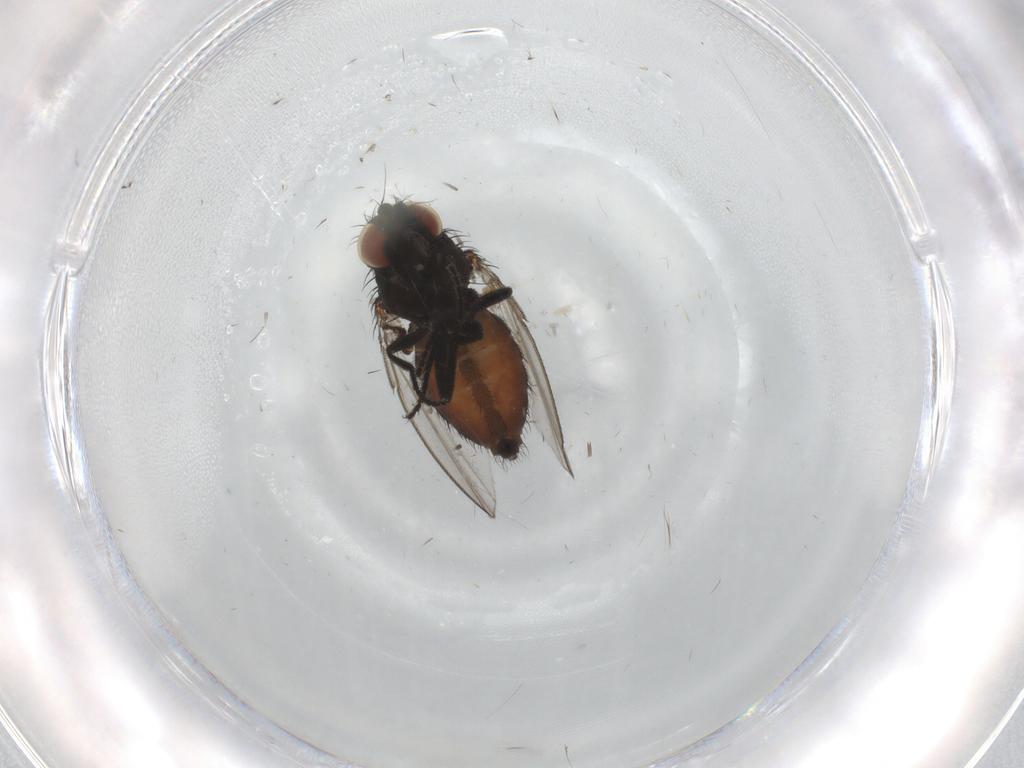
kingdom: Animalia
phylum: Arthropoda
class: Insecta
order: Diptera
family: Milichiidae
